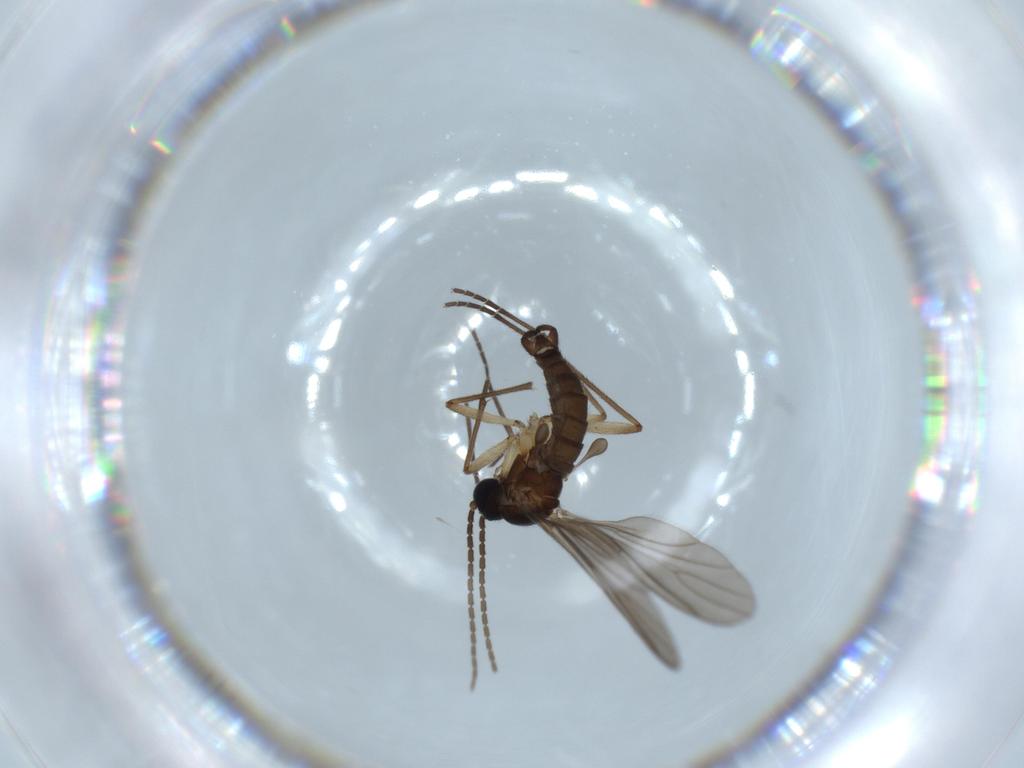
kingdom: Animalia
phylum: Arthropoda
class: Insecta
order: Diptera
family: Sciaridae
